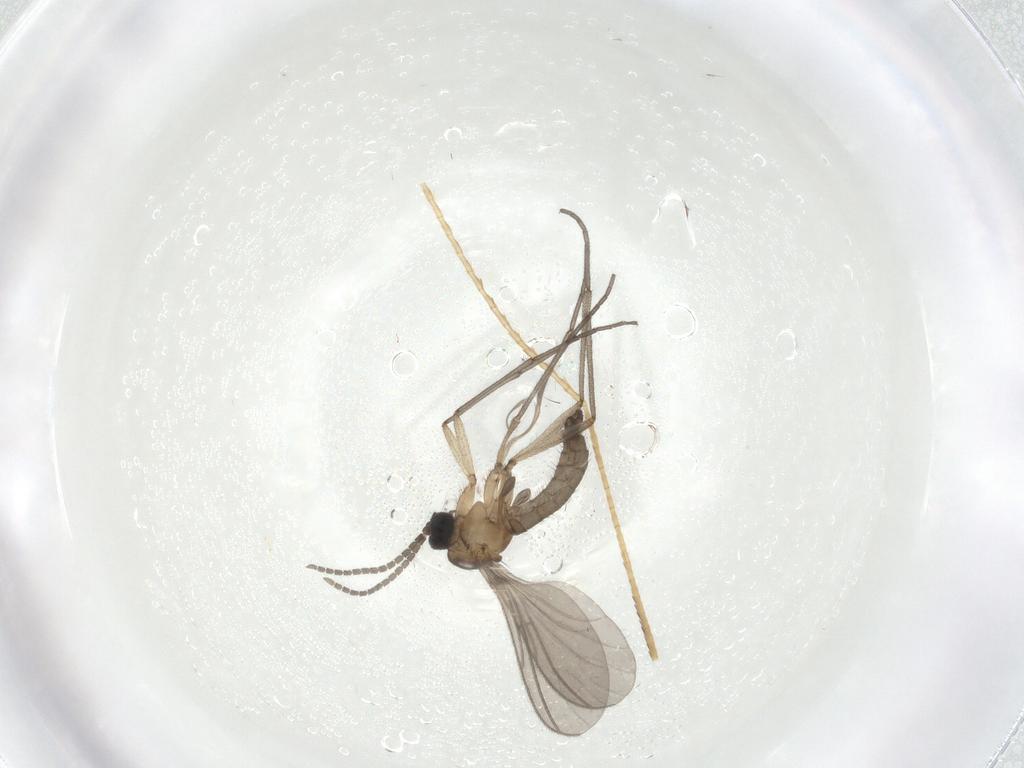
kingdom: Animalia
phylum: Arthropoda
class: Insecta
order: Diptera
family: Sciaridae
